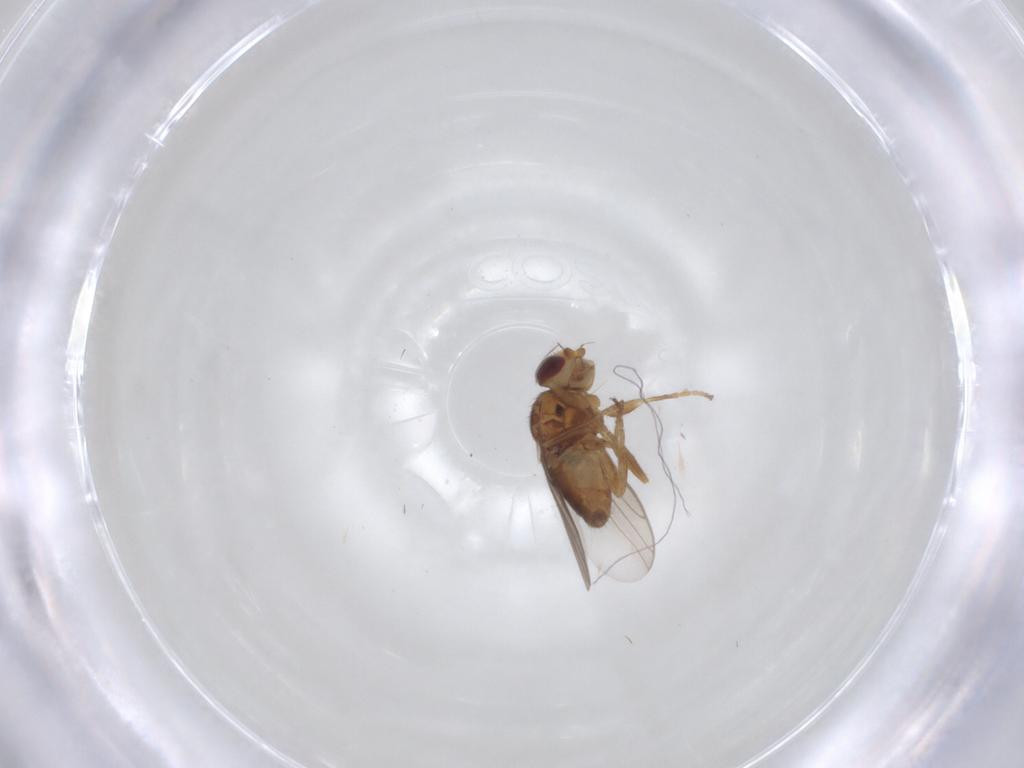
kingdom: Animalia
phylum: Arthropoda
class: Insecta
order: Diptera
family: Chloropidae
